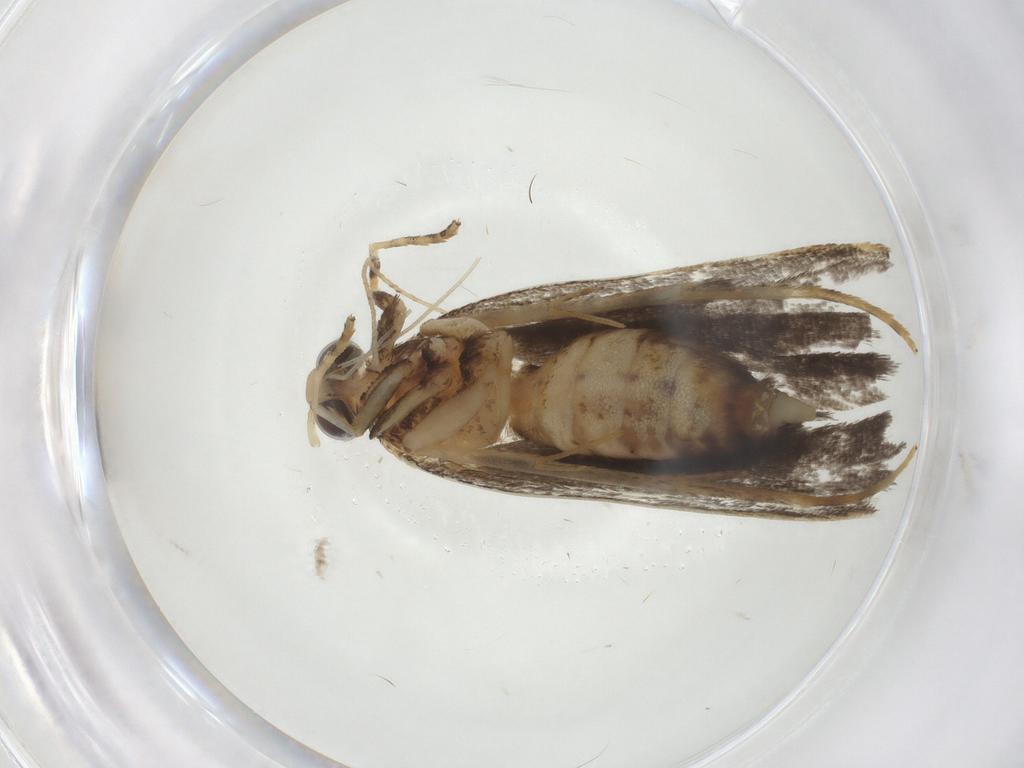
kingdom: Animalia
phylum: Arthropoda
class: Insecta
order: Lepidoptera
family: Autostichidae
